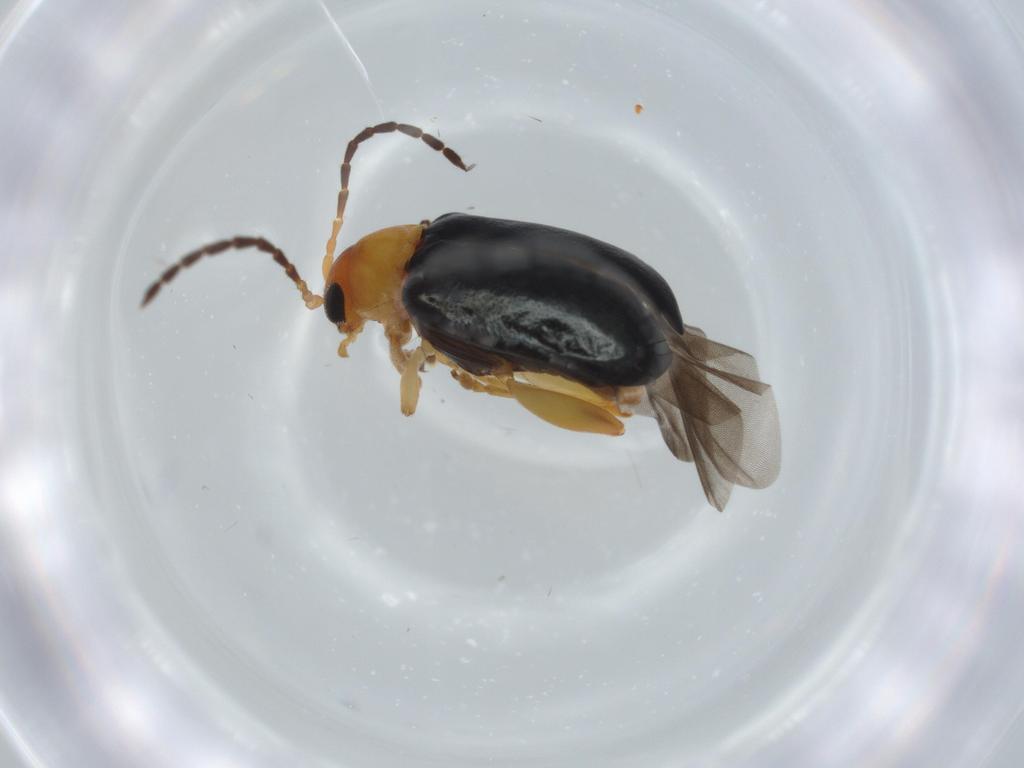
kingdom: Animalia
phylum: Arthropoda
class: Insecta
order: Coleoptera
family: Chrysomelidae
